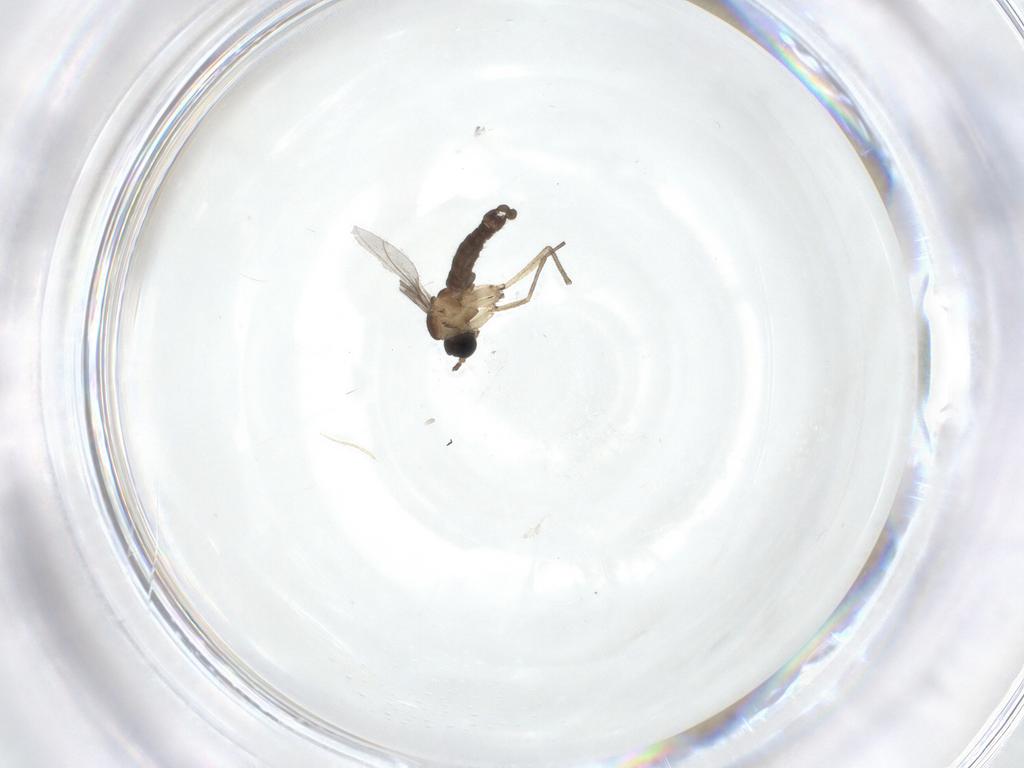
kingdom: Animalia
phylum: Arthropoda
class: Insecta
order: Diptera
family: Sciaridae
